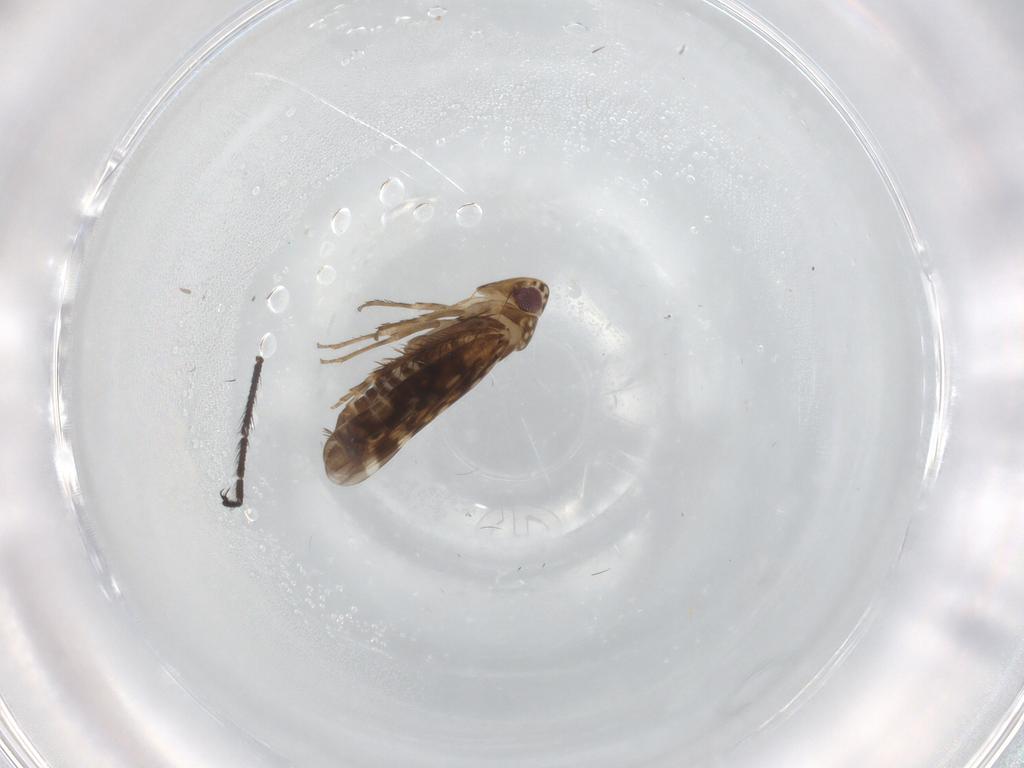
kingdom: Animalia
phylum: Arthropoda
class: Insecta
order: Hemiptera
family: Cicadellidae
